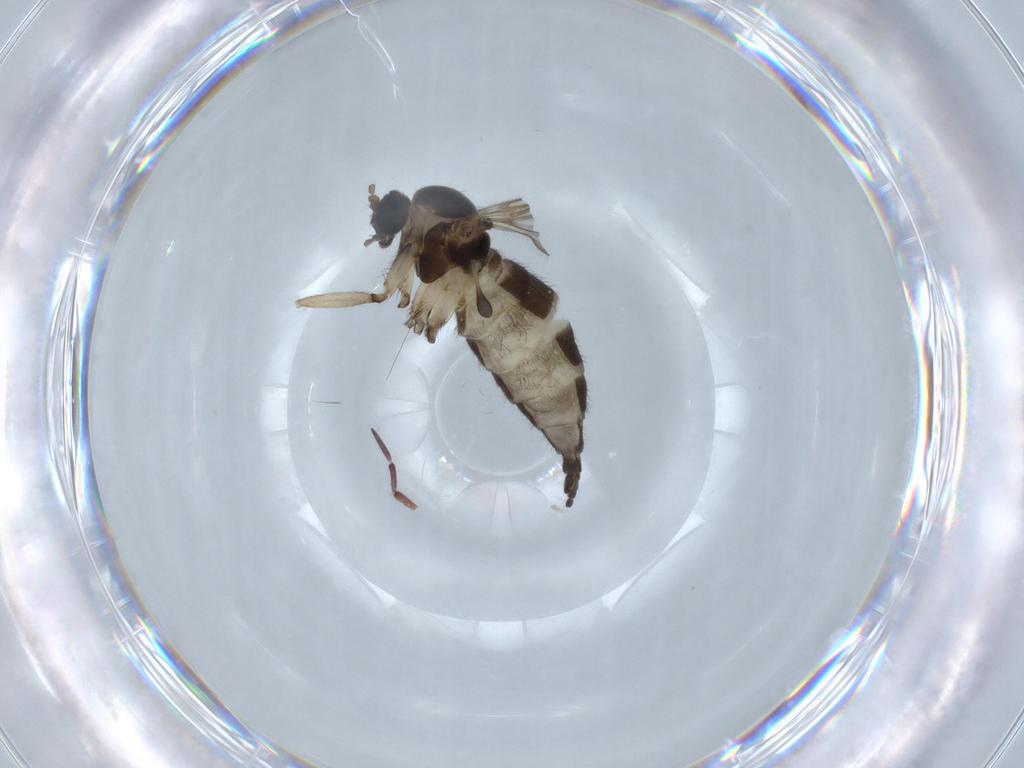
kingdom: Animalia
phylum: Arthropoda
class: Insecta
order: Diptera
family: Sciaridae
